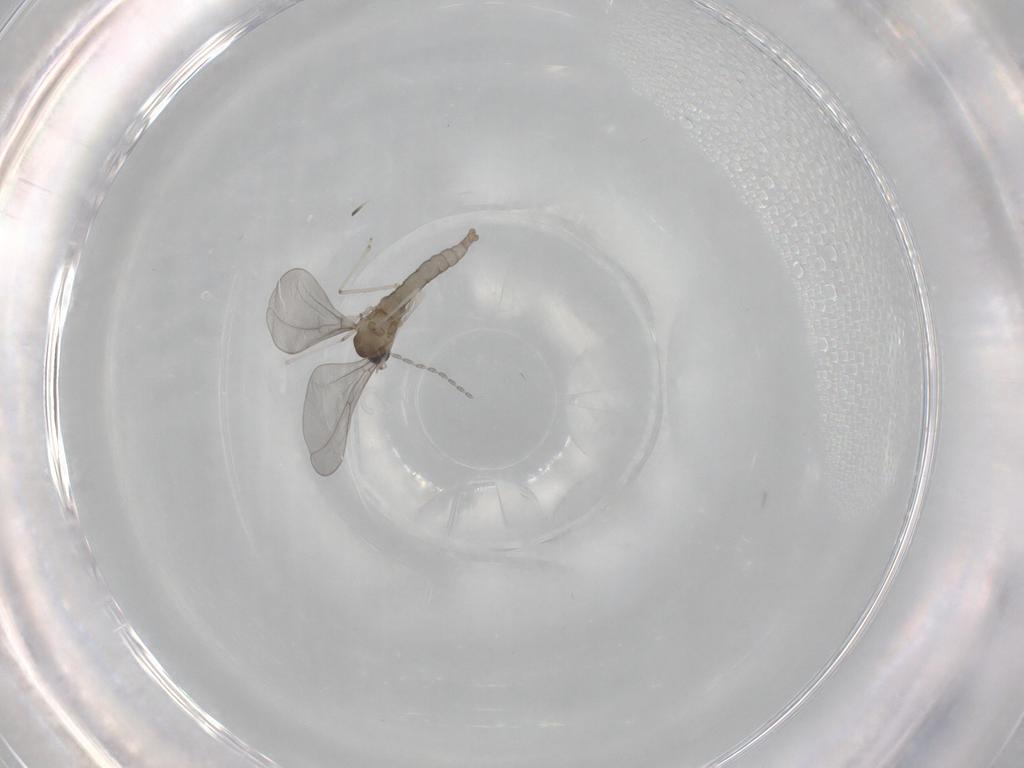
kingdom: Animalia
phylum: Arthropoda
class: Insecta
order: Diptera
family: Cecidomyiidae
